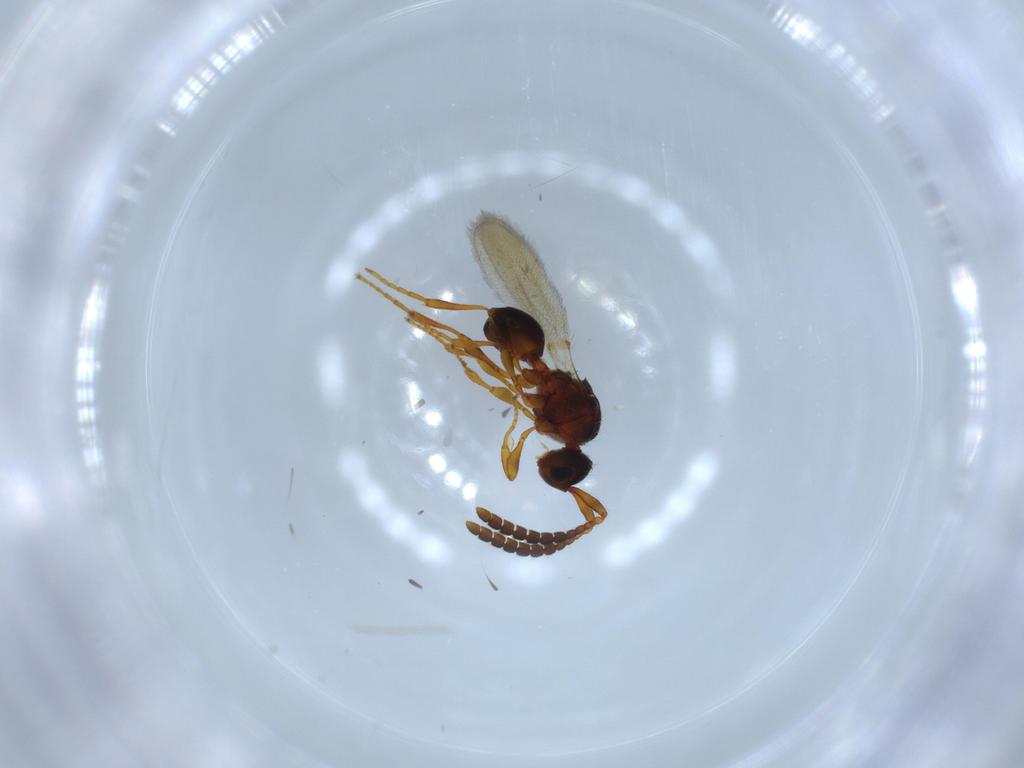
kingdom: Animalia
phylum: Arthropoda
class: Insecta
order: Hymenoptera
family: Diapriidae
